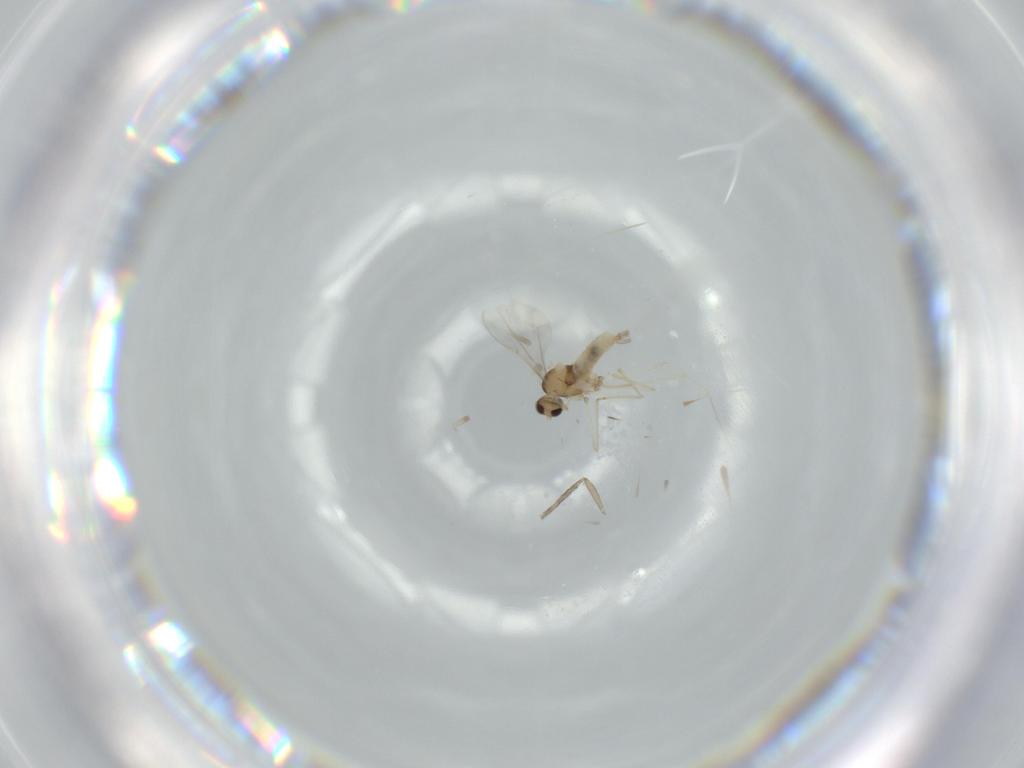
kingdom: Animalia
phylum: Arthropoda
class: Insecta
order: Diptera
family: Cecidomyiidae
